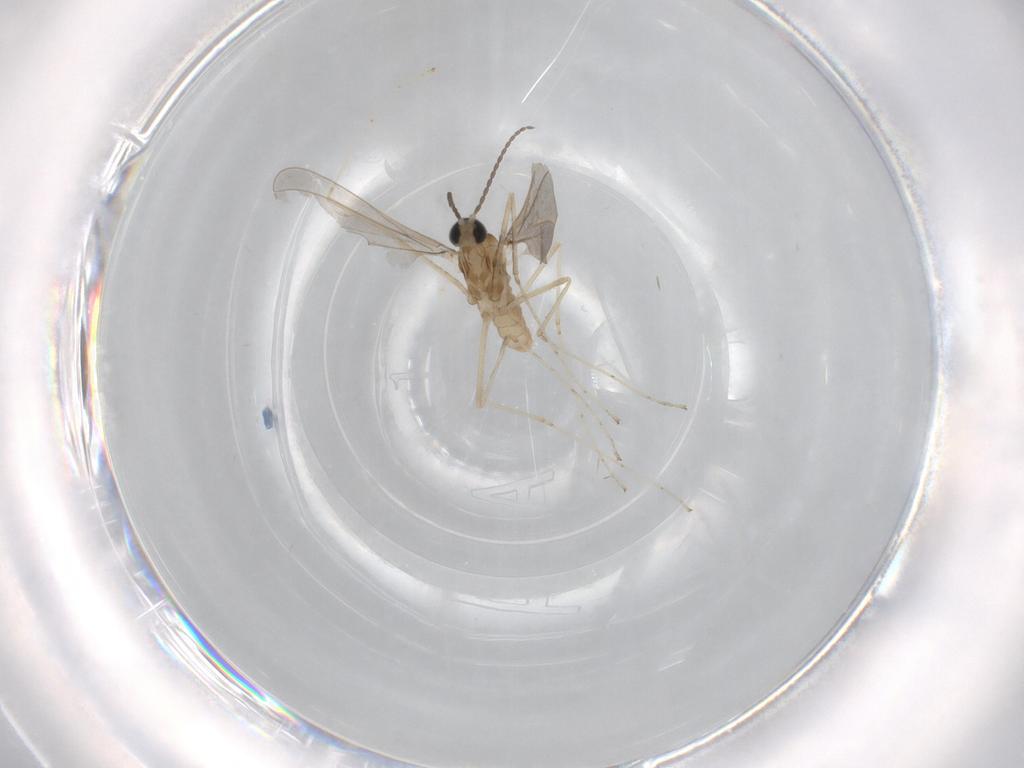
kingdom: Animalia
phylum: Arthropoda
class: Insecta
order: Diptera
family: Cecidomyiidae
